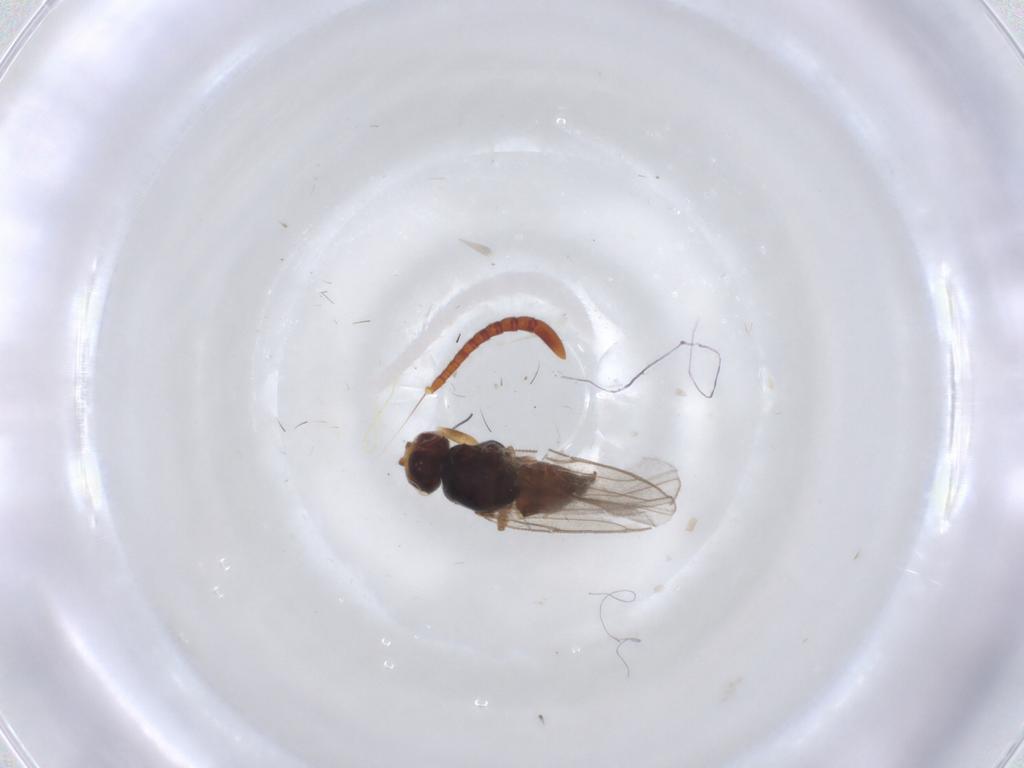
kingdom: Animalia
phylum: Arthropoda
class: Insecta
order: Diptera
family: Chloropidae
